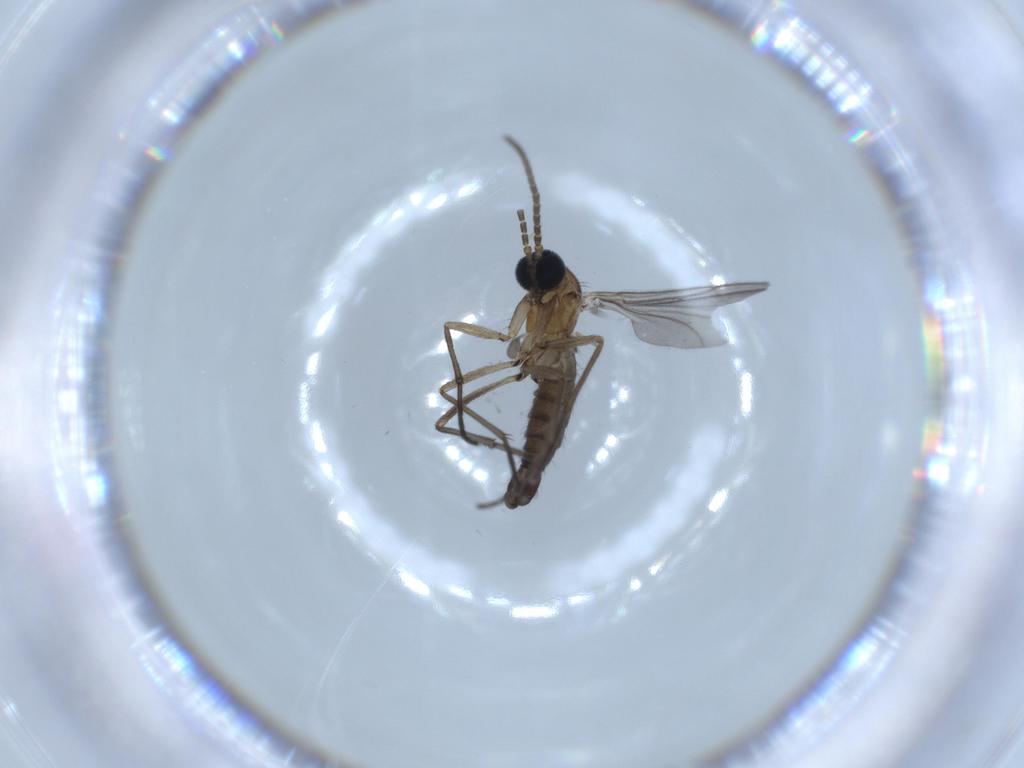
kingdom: Animalia
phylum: Arthropoda
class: Insecta
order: Diptera
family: Sciaridae
